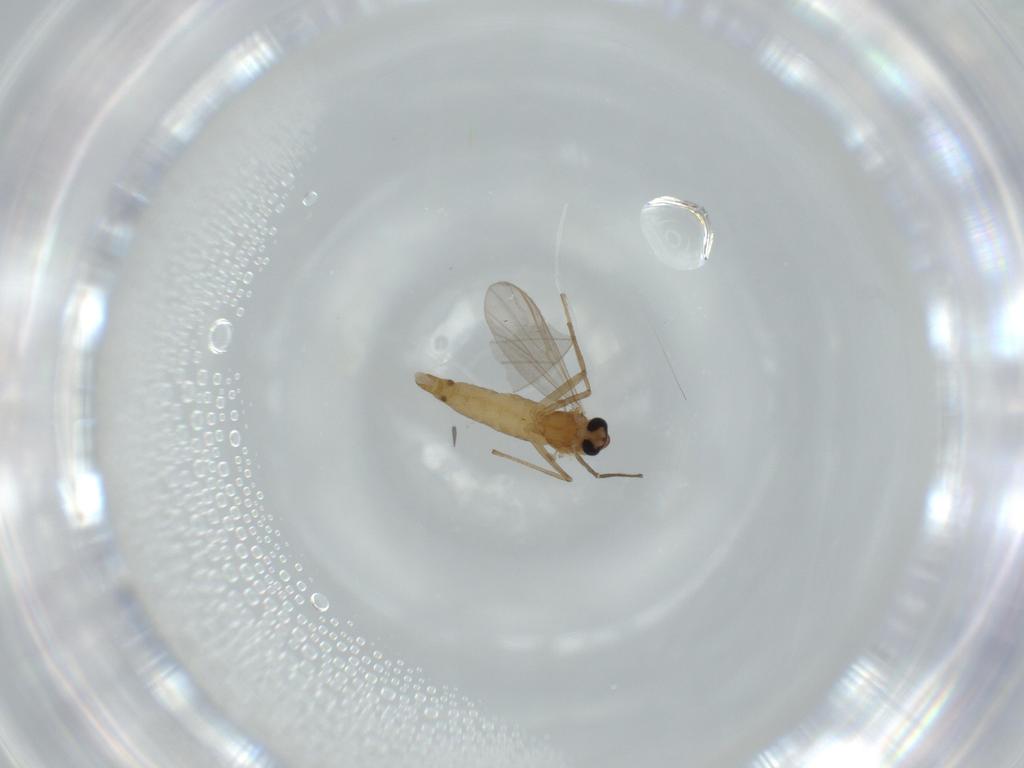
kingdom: Animalia
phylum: Arthropoda
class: Insecta
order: Diptera
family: Chironomidae
